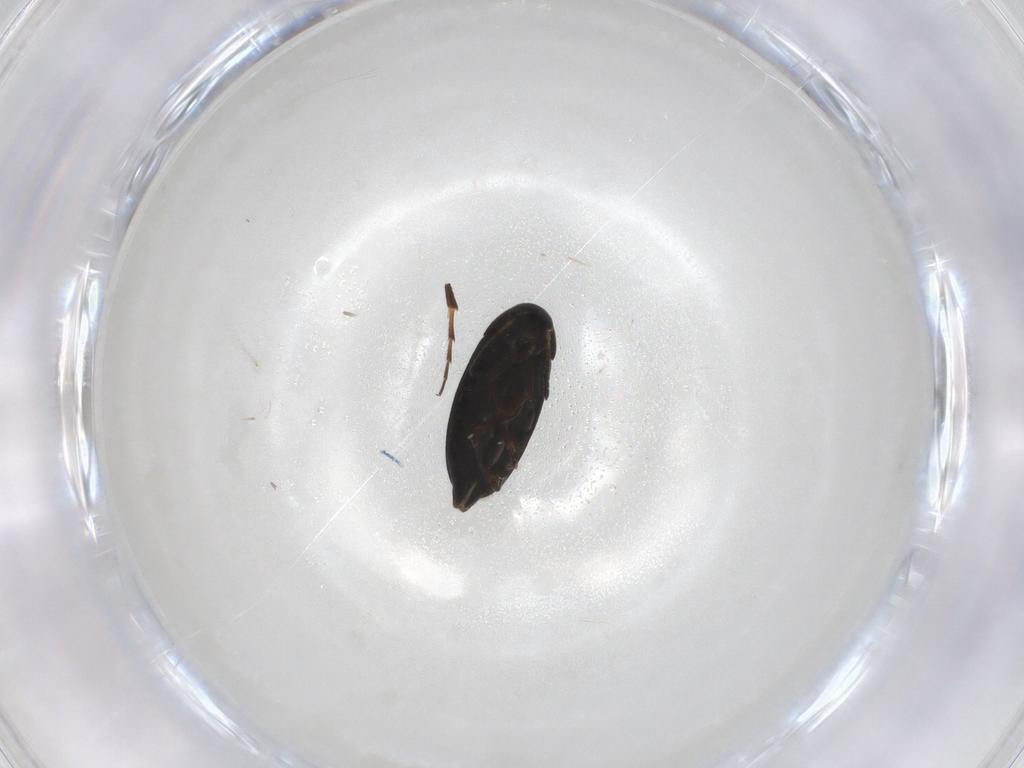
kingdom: Animalia
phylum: Arthropoda
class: Insecta
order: Coleoptera
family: Scraptiidae
